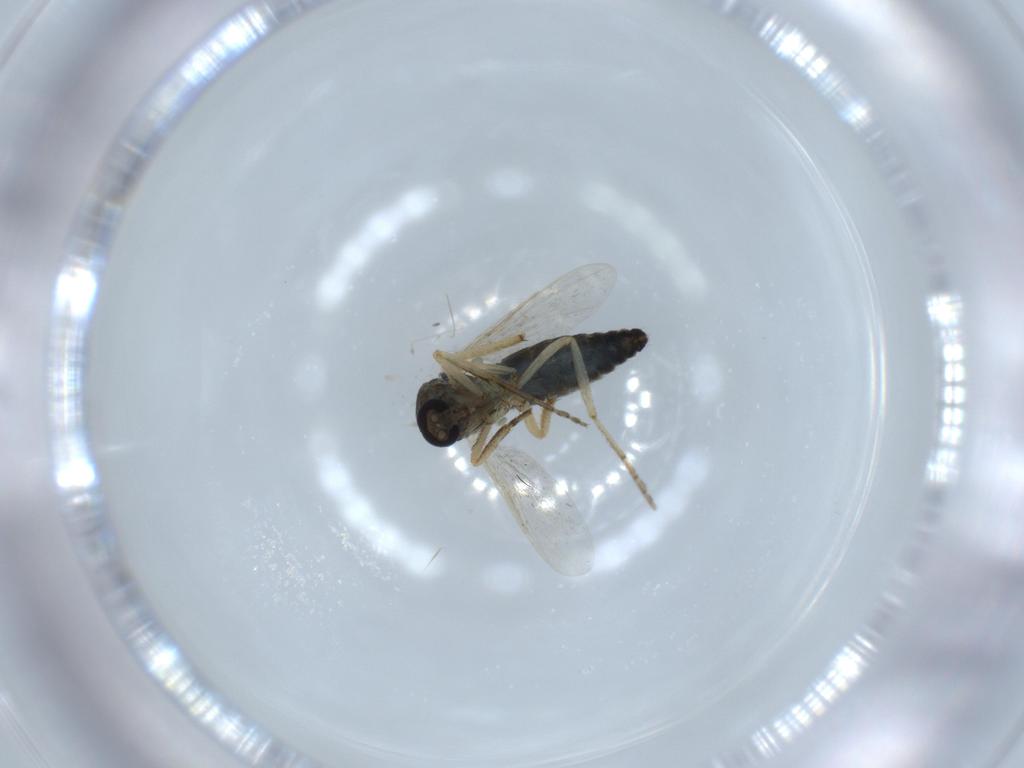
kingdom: Animalia
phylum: Arthropoda
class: Insecta
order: Diptera
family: Ceratopogonidae
